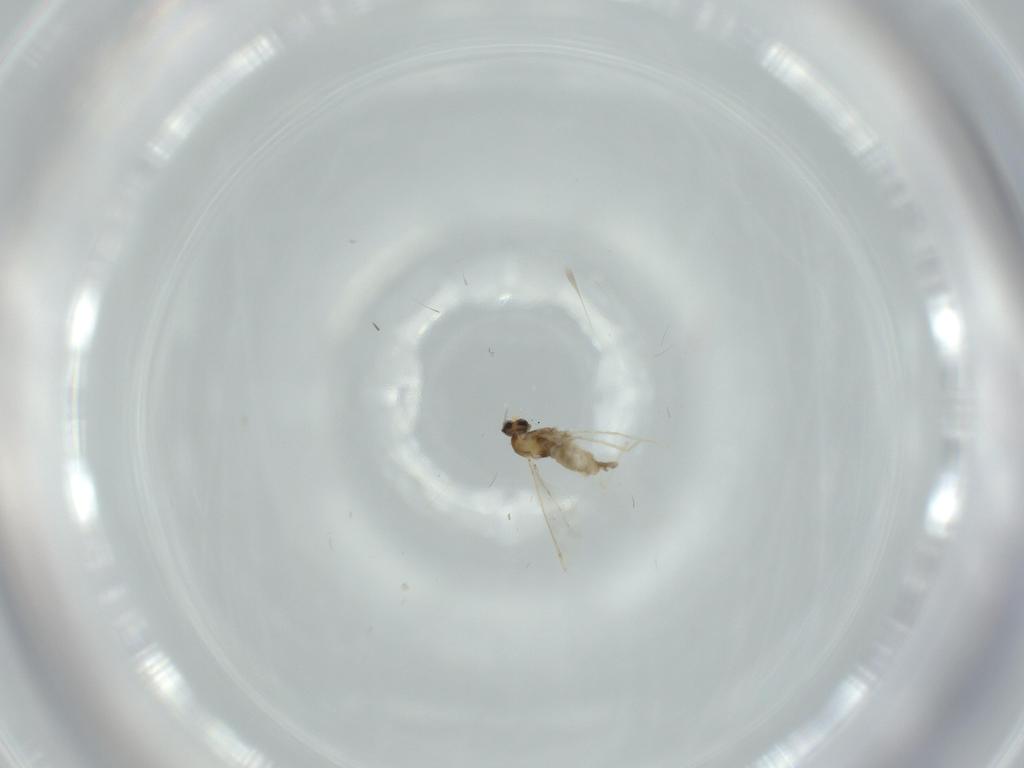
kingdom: Animalia
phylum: Arthropoda
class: Insecta
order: Diptera
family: Cecidomyiidae
